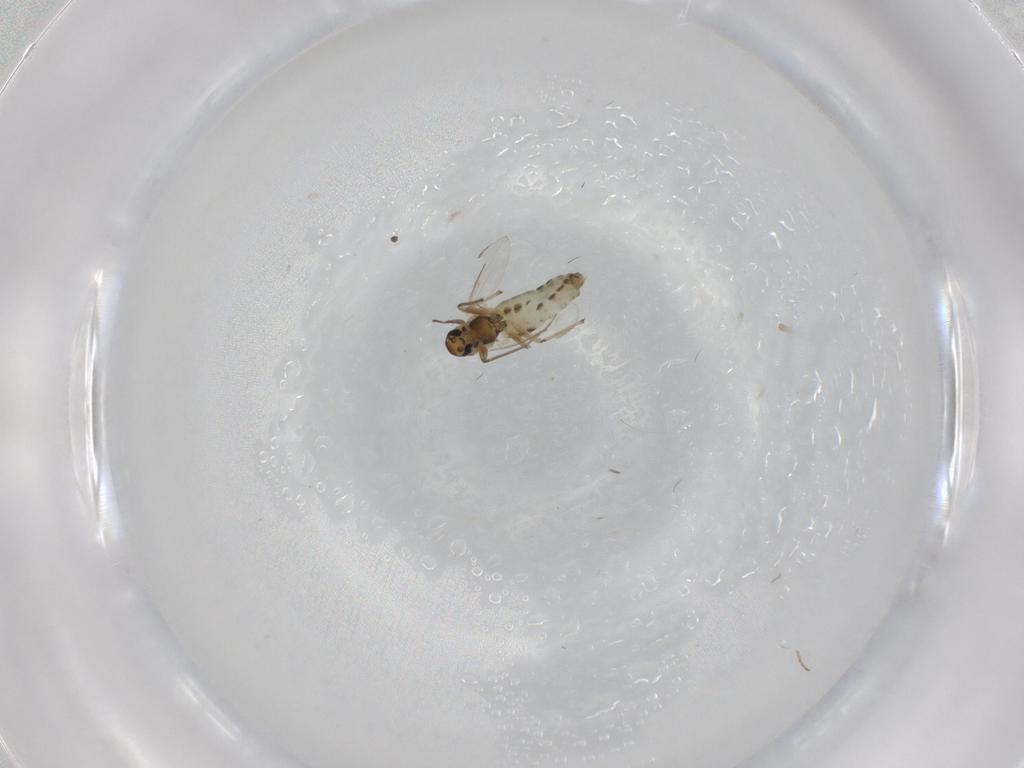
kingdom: Animalia
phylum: Arthropoda
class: Insecta
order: Diptera
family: Chironomidae
